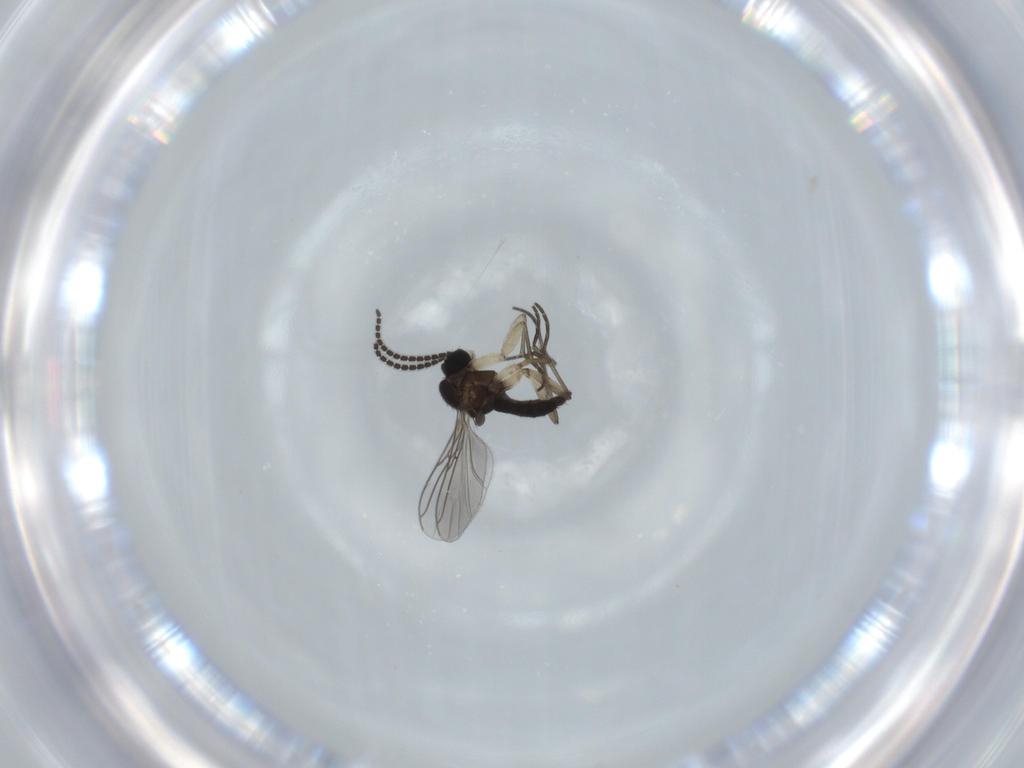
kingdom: Animalia
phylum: Arthropoda
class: Insecta
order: Diptera
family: Sciaridae
